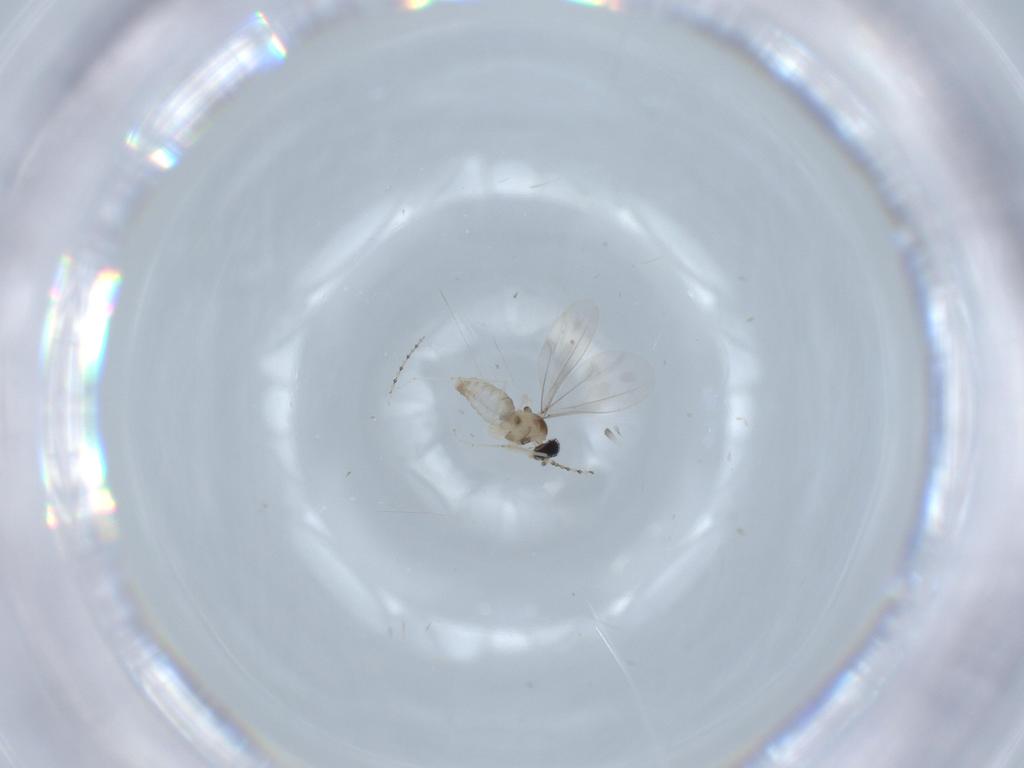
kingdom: Animalia
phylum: Arthropoda
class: Insecta
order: Diptera
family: Cecidomyiidae
